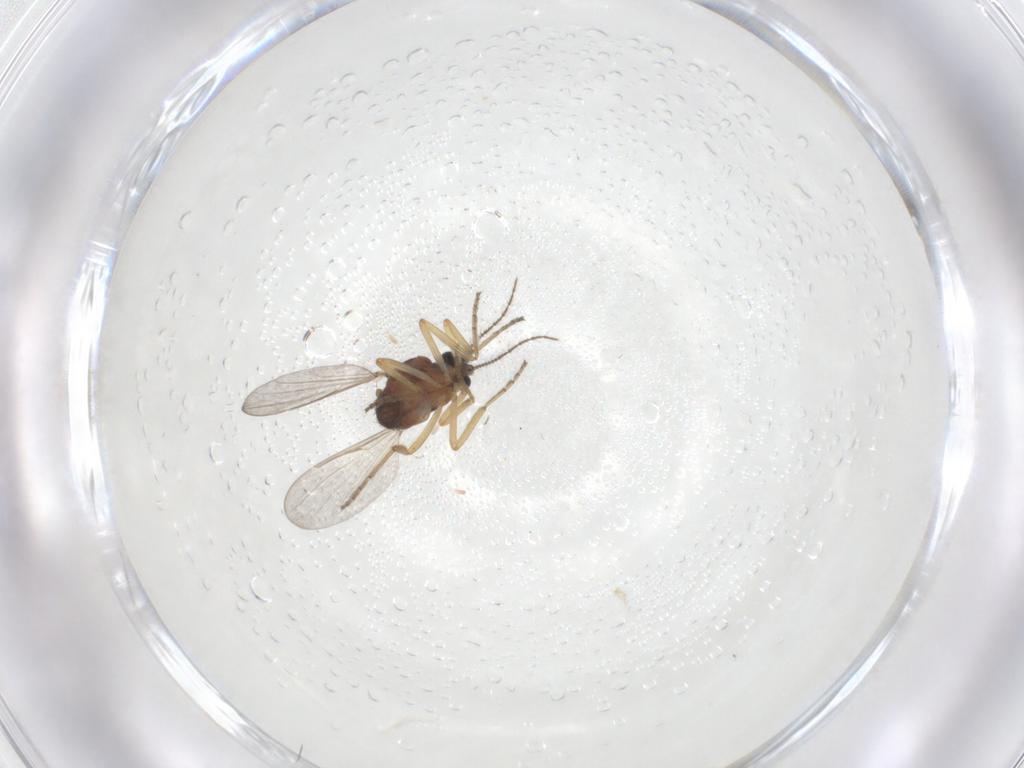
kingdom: Animalia
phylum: Arthropoda
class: Insecta
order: Diptera
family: Ceratopogonidae
